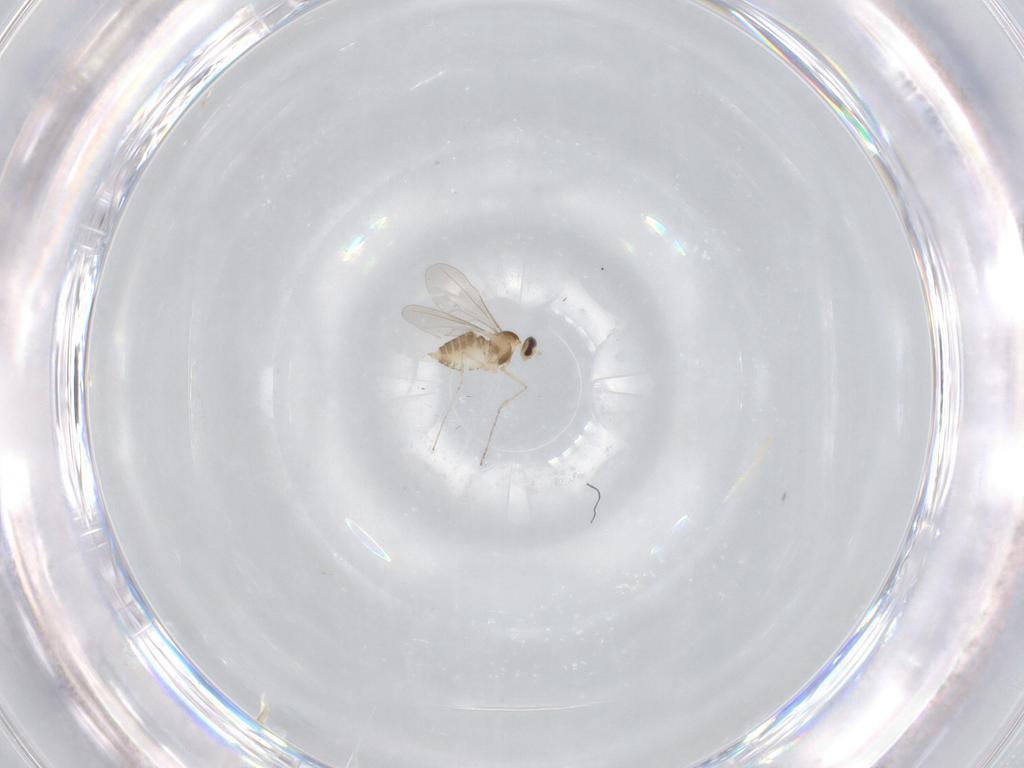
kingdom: Animalia
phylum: Arthropoda
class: Insecta
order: Diptera
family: Cecidomyiidae
